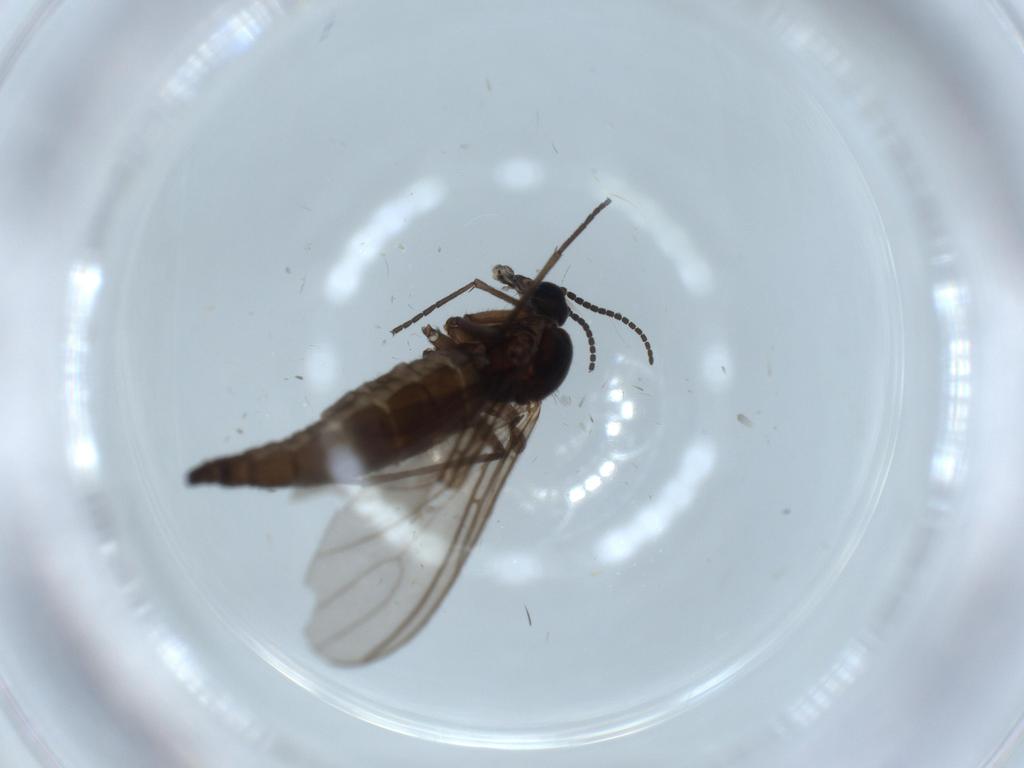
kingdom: Animalia
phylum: Arthropoda
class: Insecta
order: Diptera
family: Sciaridae
